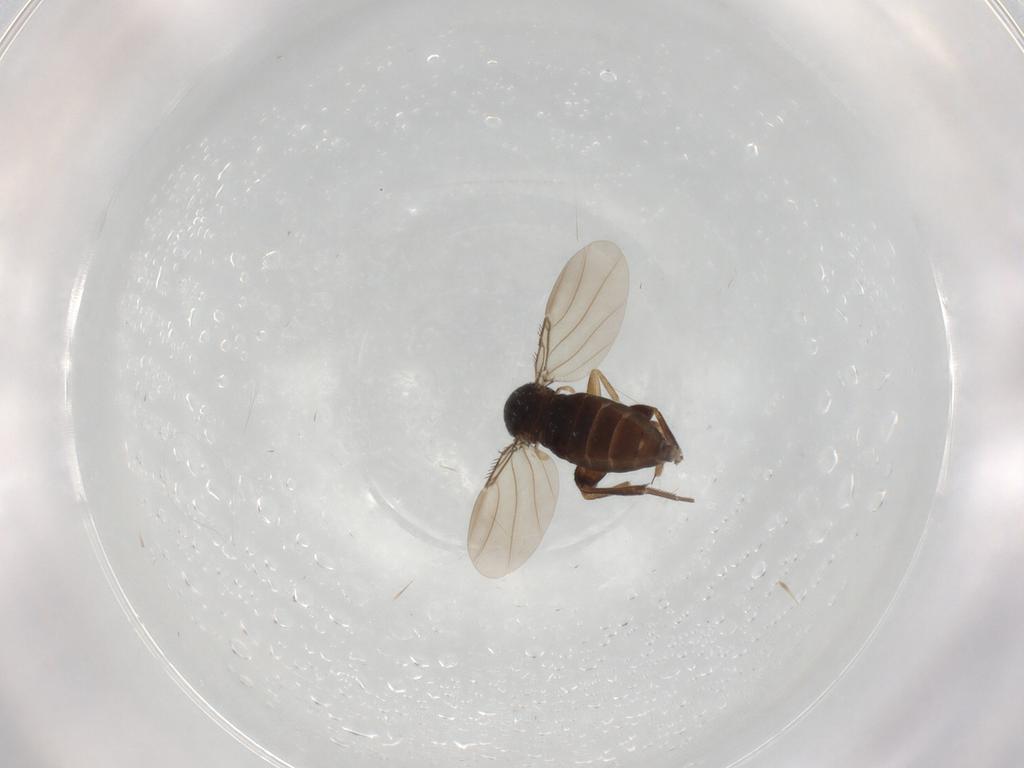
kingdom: Animalia
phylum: Arthropoda
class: Insecta
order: Diptera
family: Phoridae
